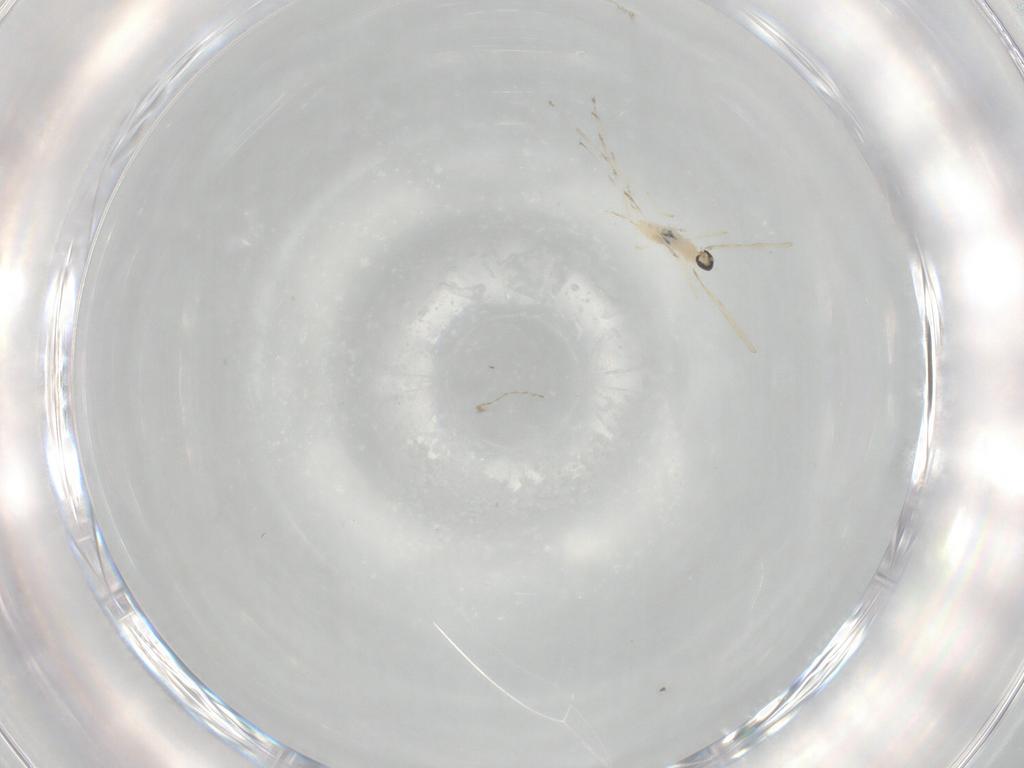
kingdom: Animalia
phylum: Arthropoda
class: Insecta
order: Diptera
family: Cecidomyiidae
